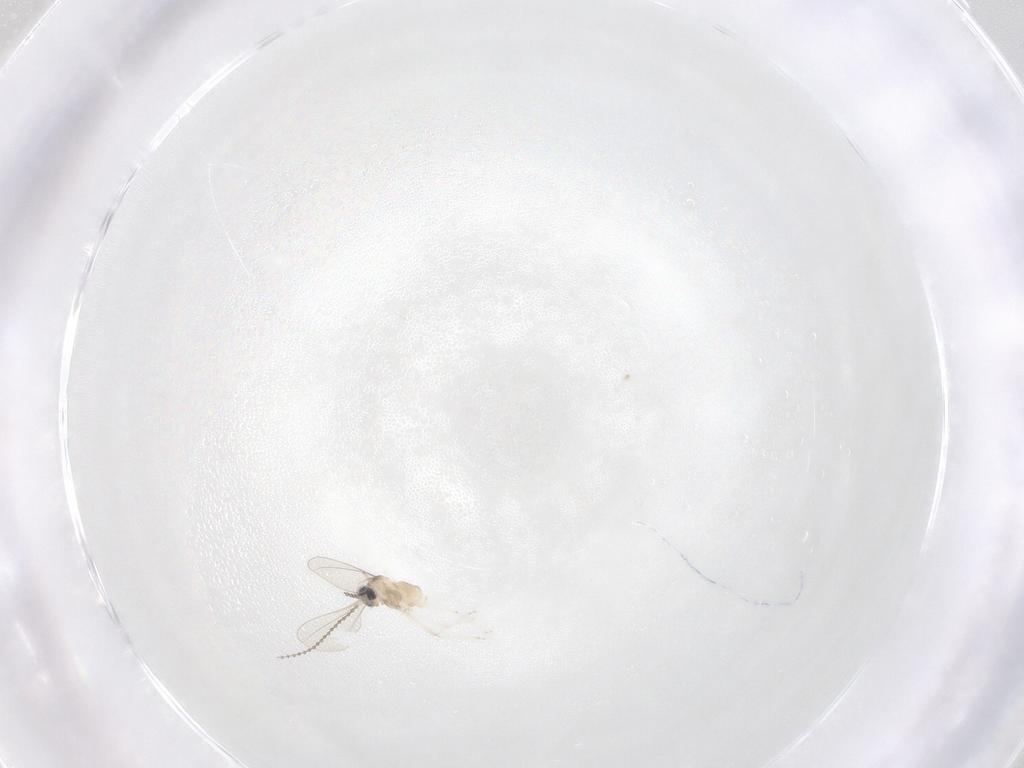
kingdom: Animalia
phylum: Arthropoda
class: Insecta
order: Diptera
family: Cecidomyiidae
